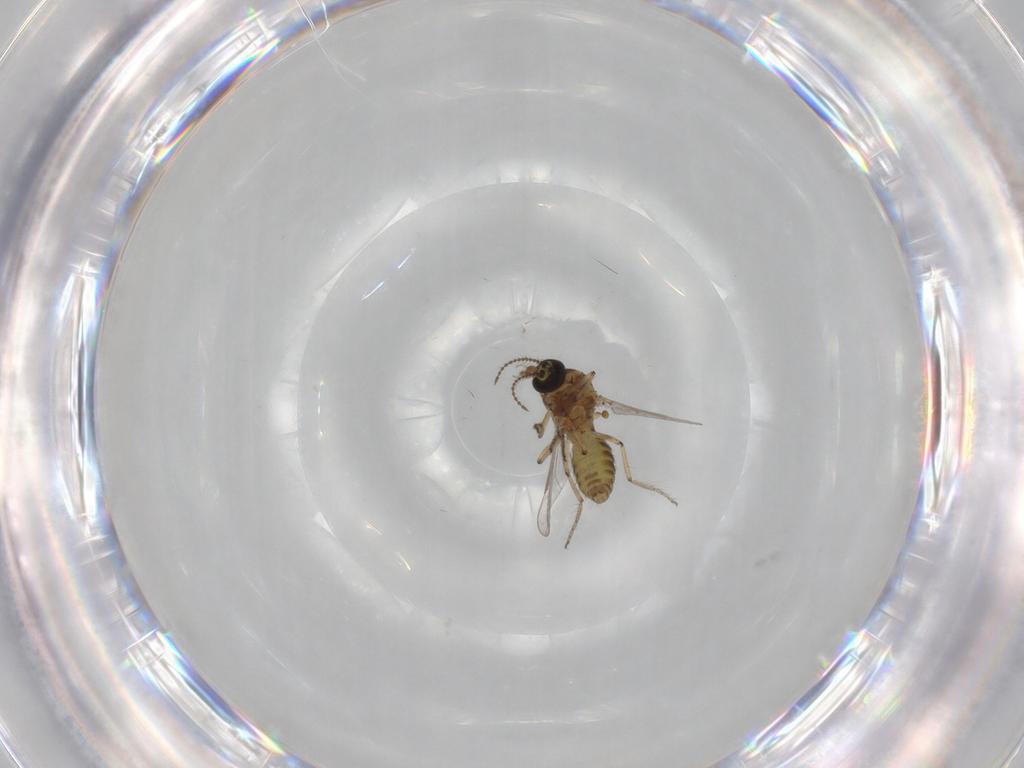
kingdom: Animalia
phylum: Arthropoda
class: Insecta
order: Diptera
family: Ceratopogonidae
